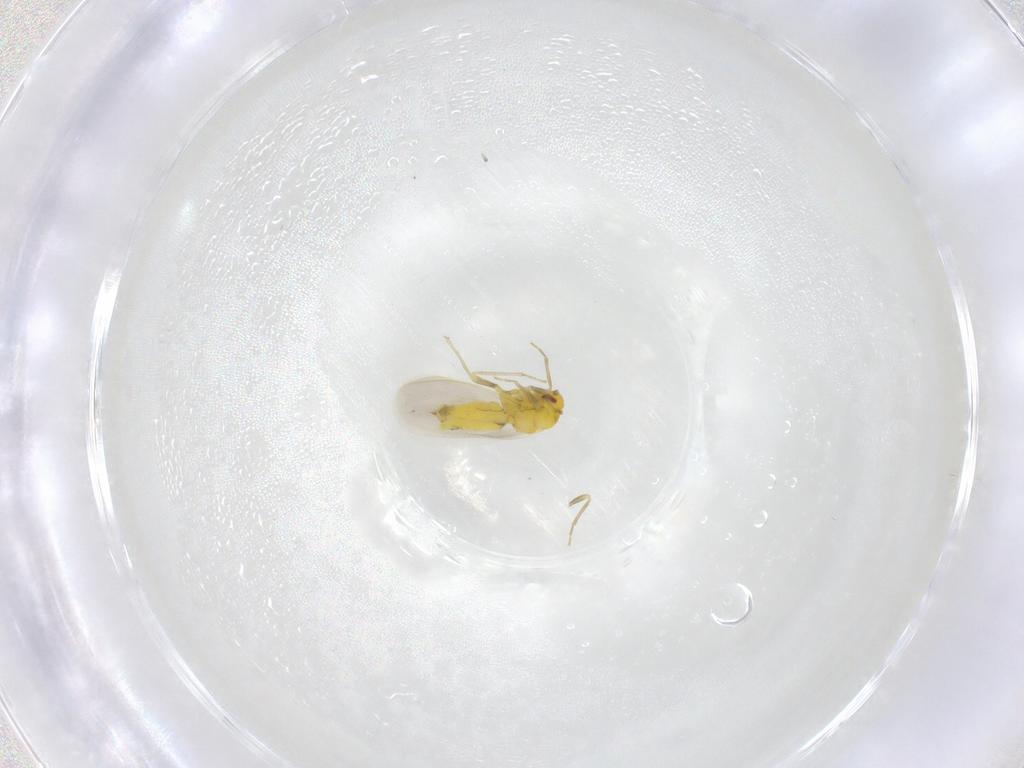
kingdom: Animalia
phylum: Arthropoda
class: Insecta
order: Hemiptera
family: Aleyrodidae
